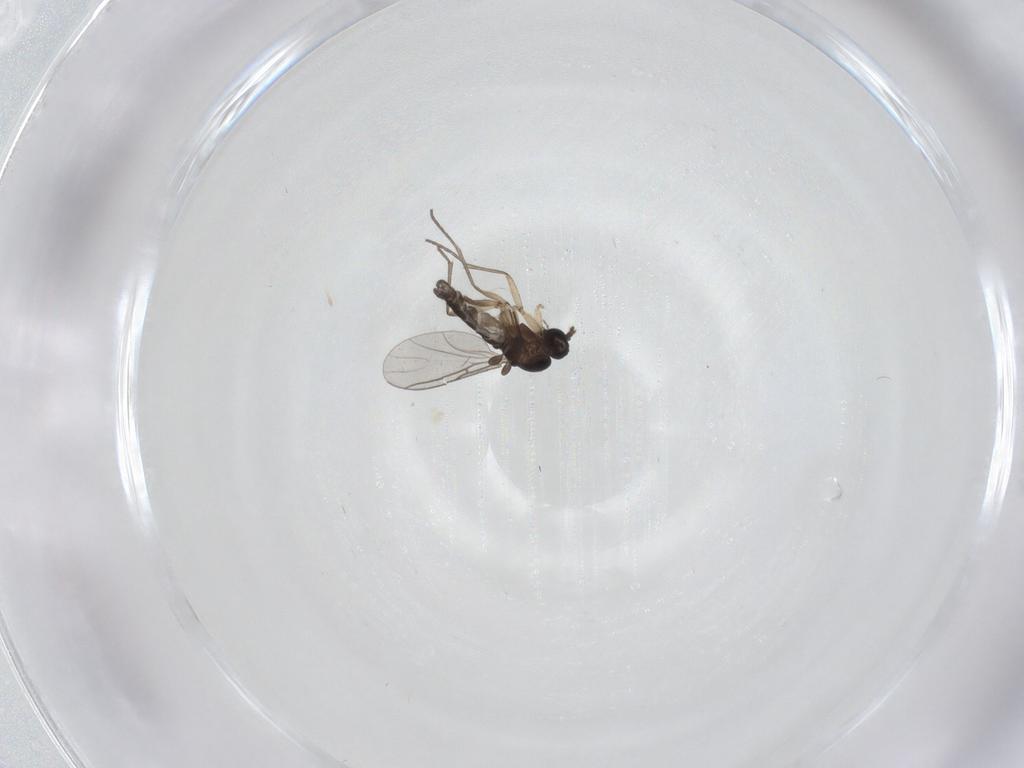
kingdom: Animalia
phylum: Arthropoda
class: Insecta
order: Diptera
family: Sciaridae
